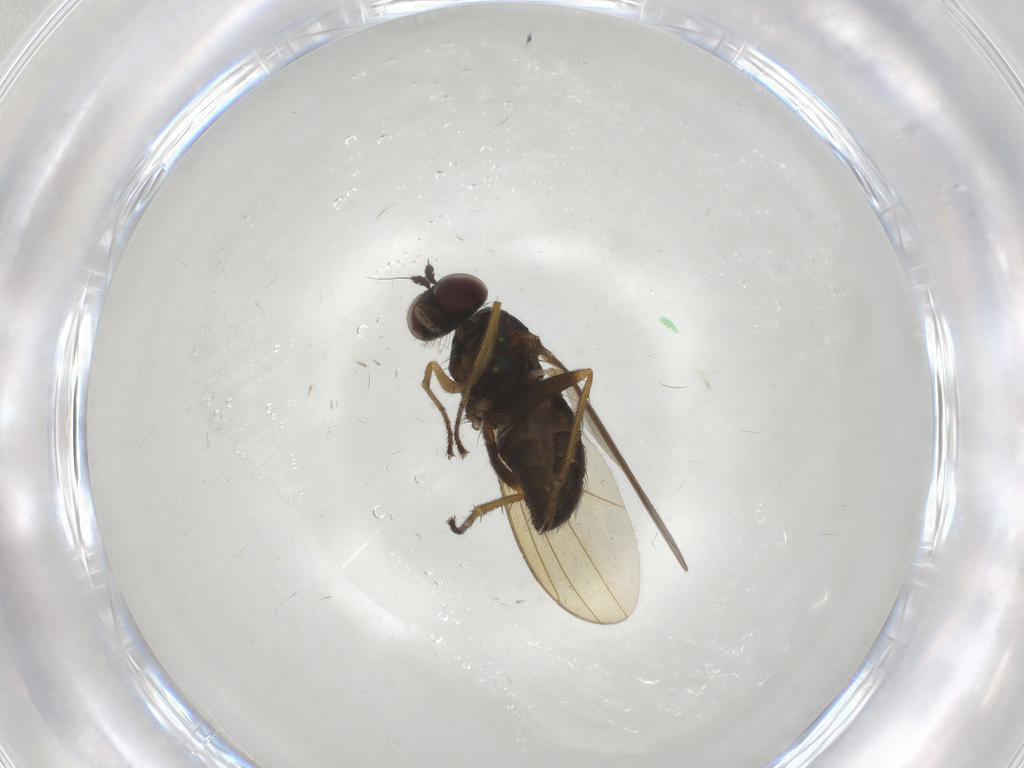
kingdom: Animalia
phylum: Arthropoda
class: Insecta
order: Diptera
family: Dolichopodidae
